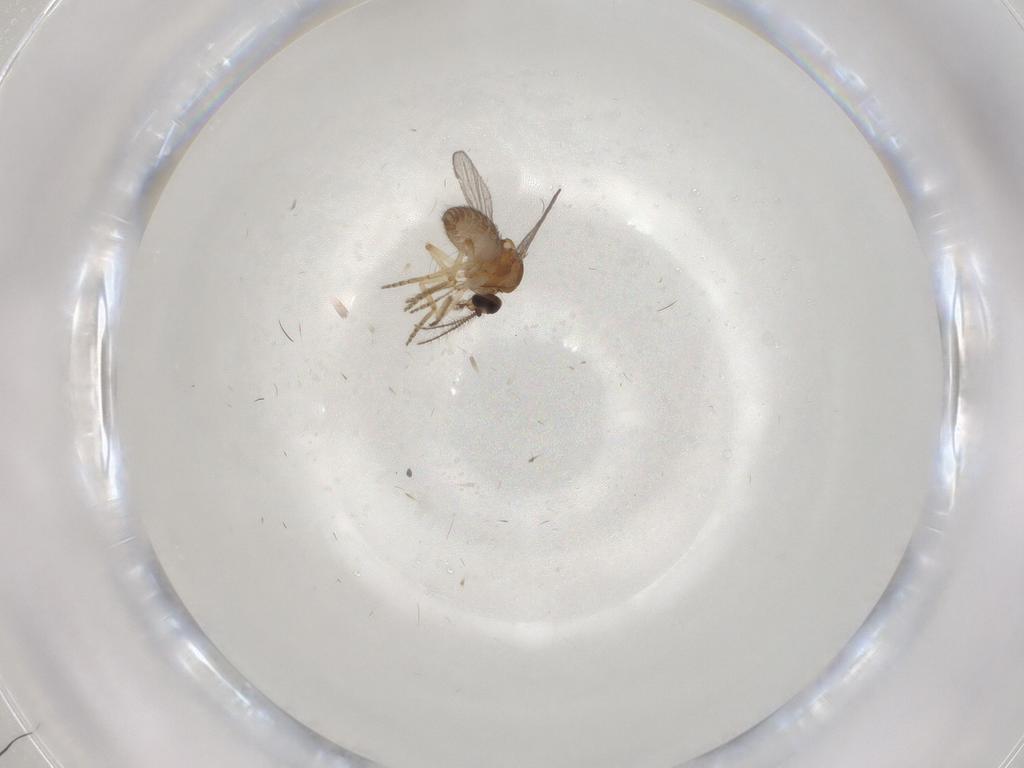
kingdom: Animalia
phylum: Arthropoda
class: Insecta
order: Diptera
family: Ceratopogonidae
